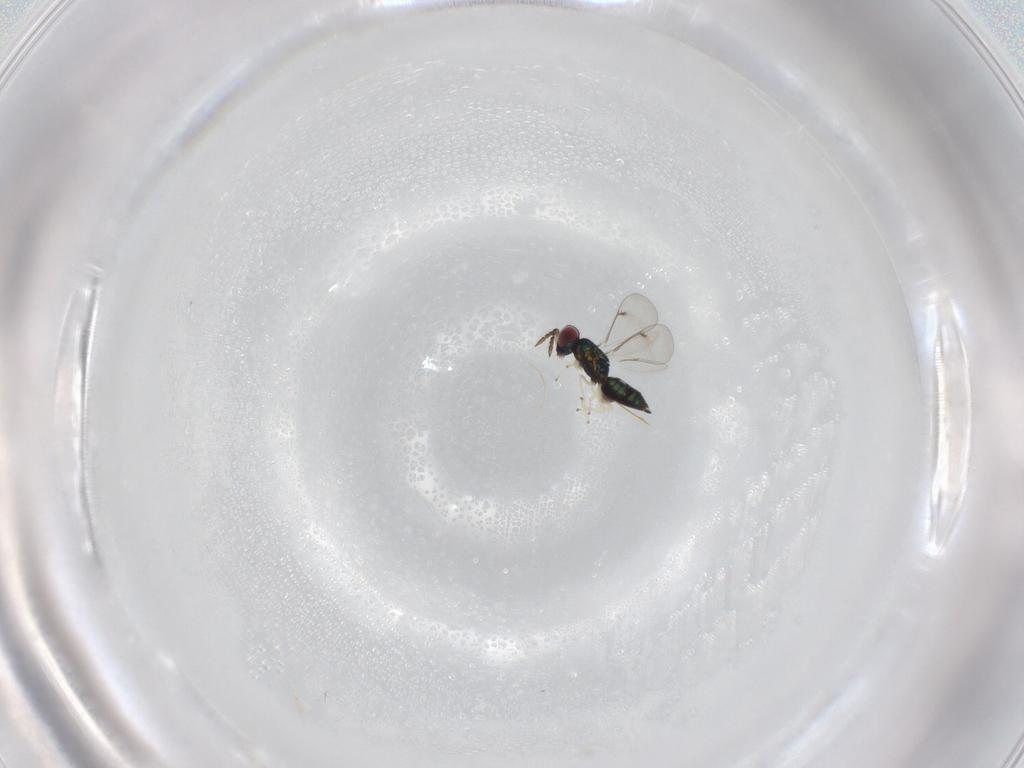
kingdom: Animalia
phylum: Arthropoda
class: Insecta
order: Hymenoptera
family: Eulophidae
